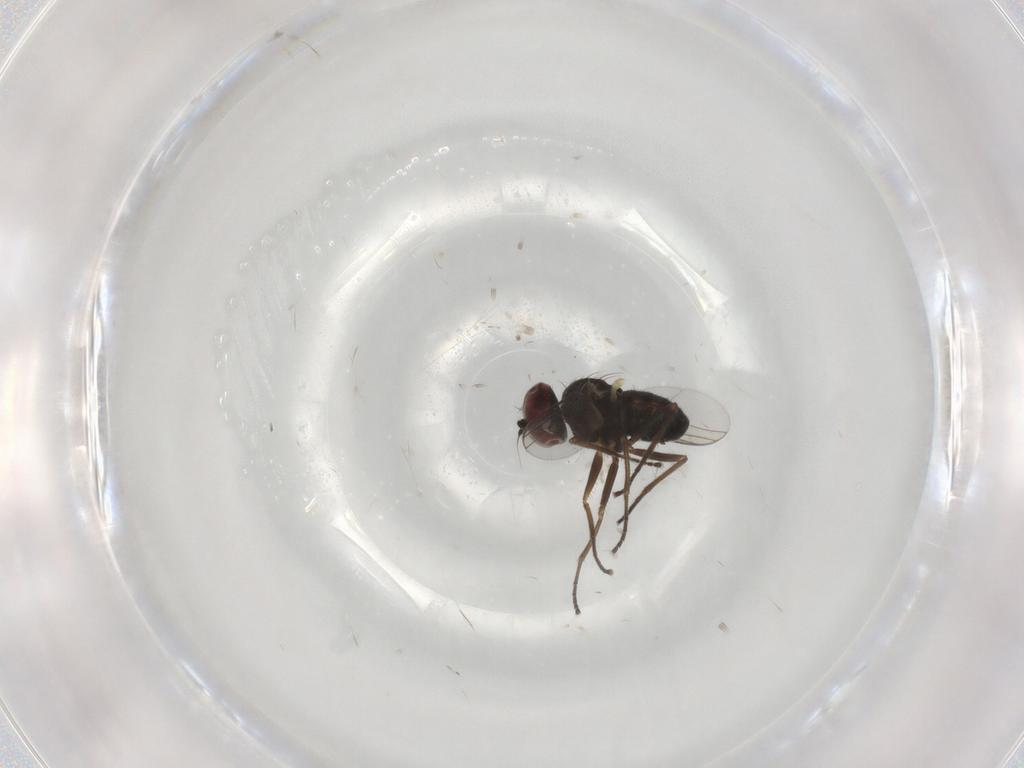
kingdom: Animalia
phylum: Arthropoda
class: Insecta
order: Diptera
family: Dolichopodidae
